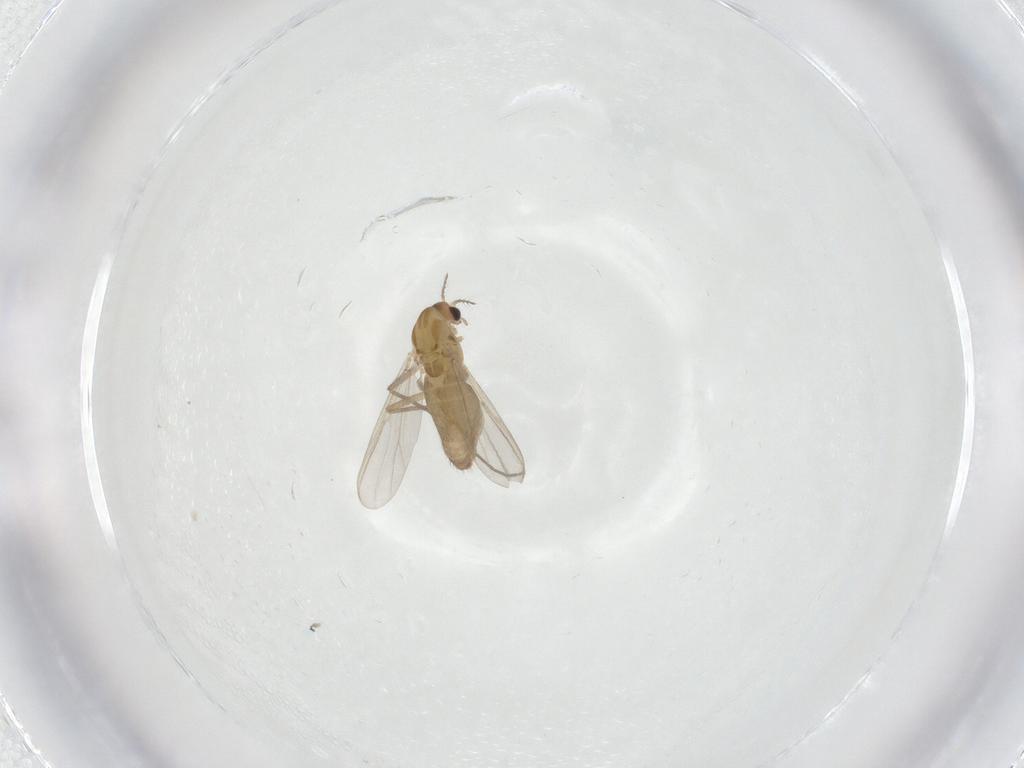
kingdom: Animalia
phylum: Arthropoda
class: Insecta
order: Diptera
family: Chironomidae
